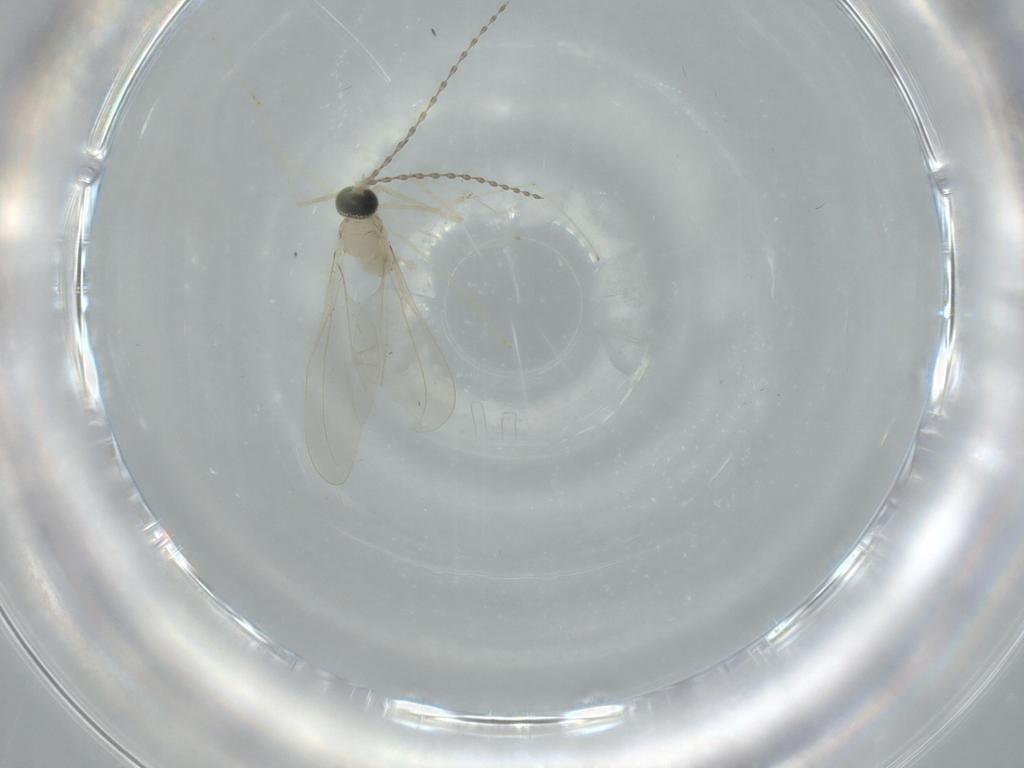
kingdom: Animalia
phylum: Arthropoda
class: Insecta
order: Diptera
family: Cecidomyiidae
